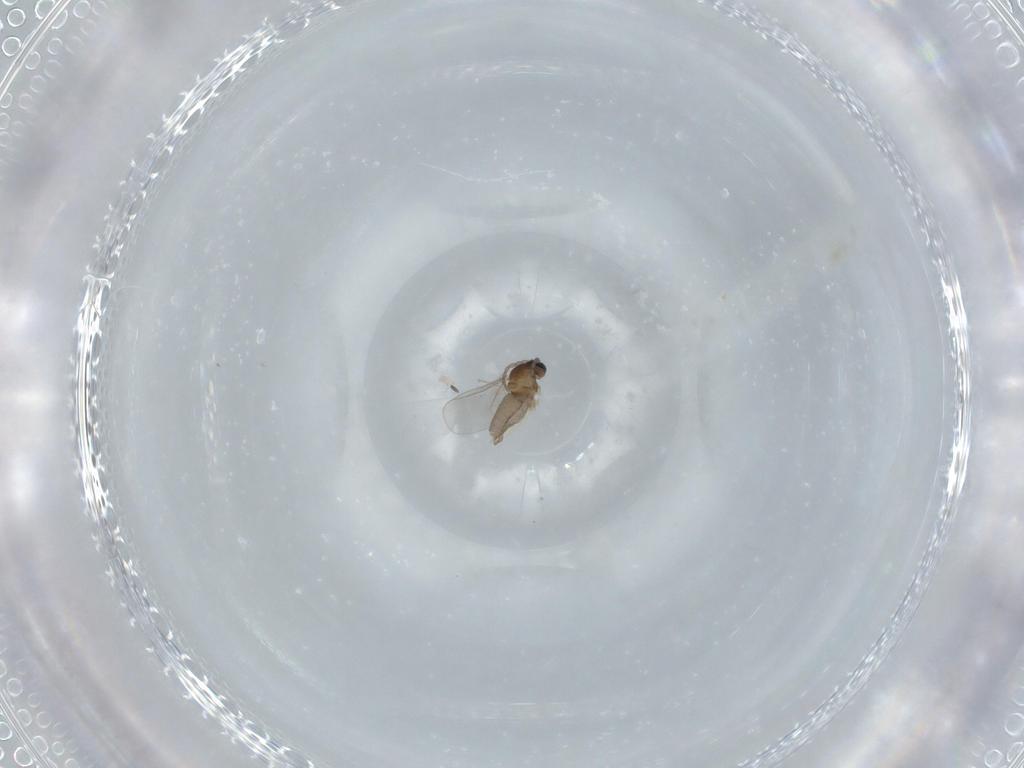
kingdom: Animalia
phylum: Arthropoda
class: Insecta
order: Diptera
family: Cecidomyiidae
